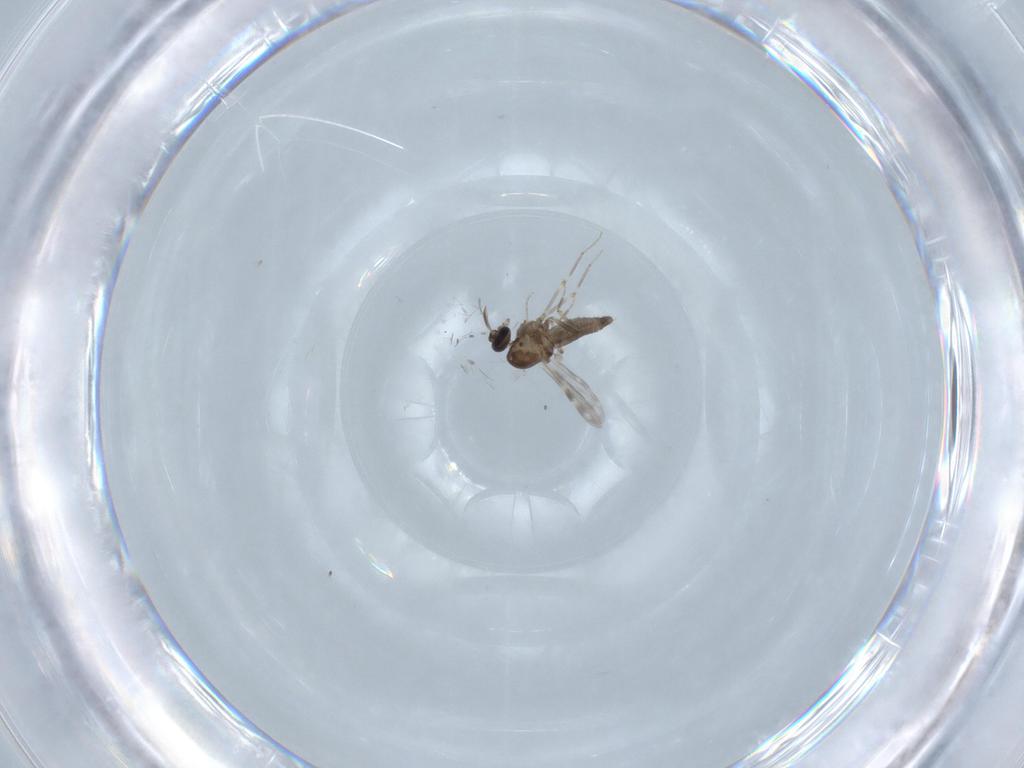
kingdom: Animalia
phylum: Arthropoda
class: Insecta
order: Diptera
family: Ceratopogonidae
